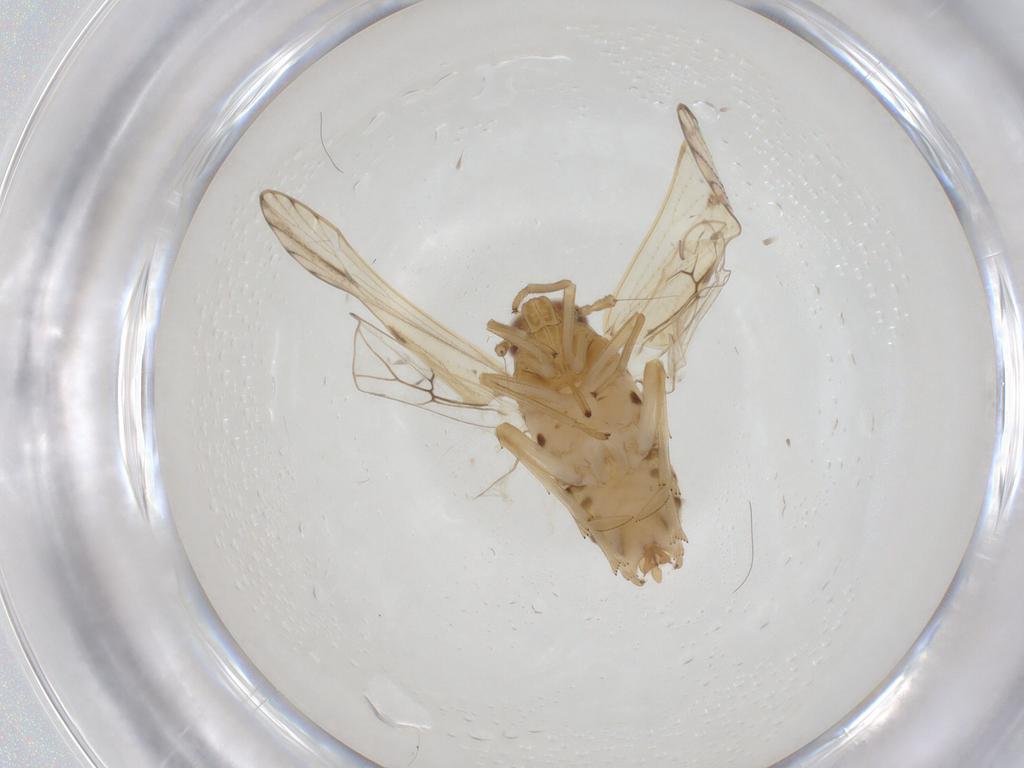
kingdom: Animalia
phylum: Arthropoda
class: Insecta
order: Hemiptera
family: Delphacidae
